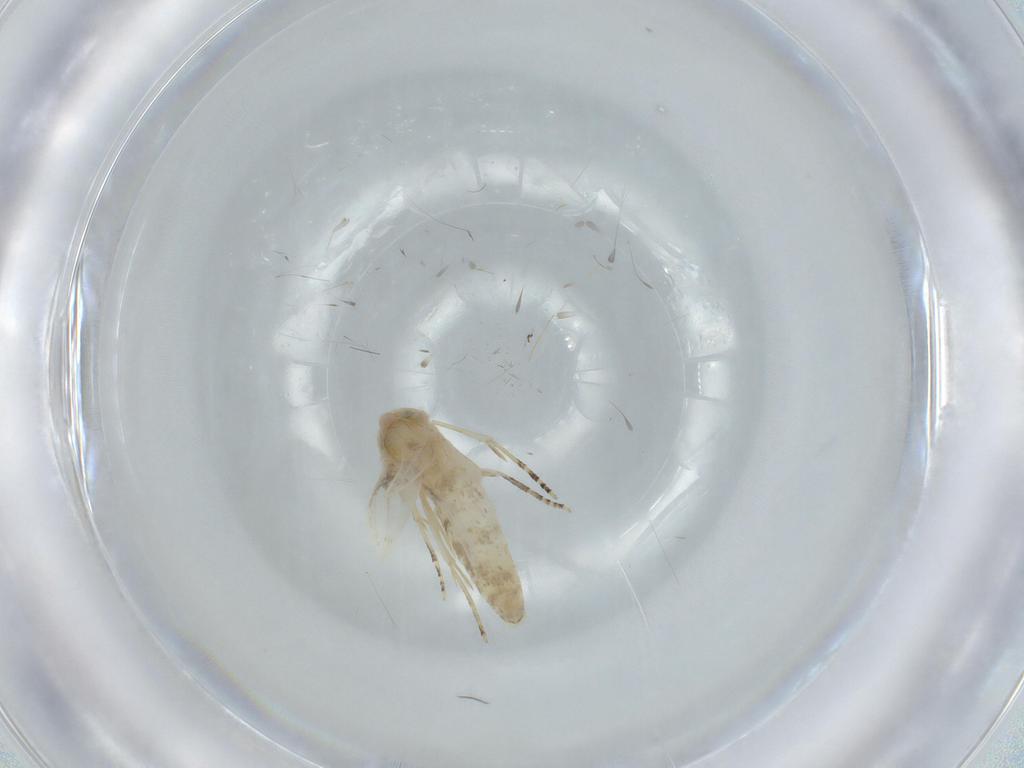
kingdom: Animalia
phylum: Arthropoda
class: Insecta
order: Lepidoptera
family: Bucculatricidae
